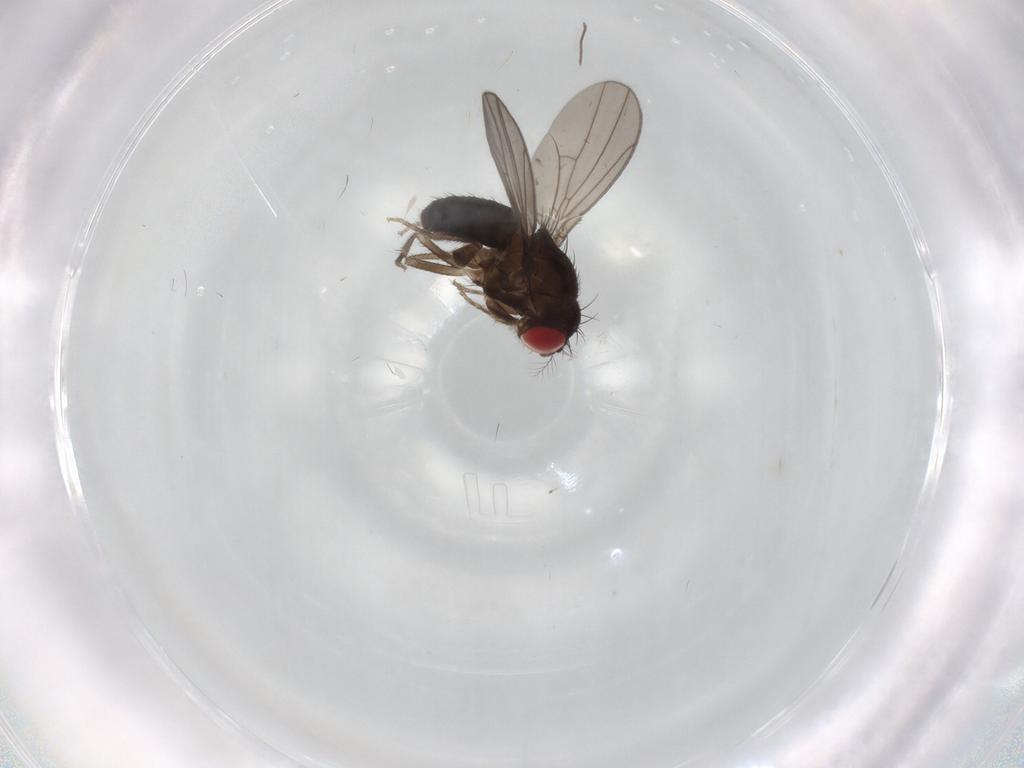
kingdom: Animalia
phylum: Arthropoda
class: Insecta
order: Diptera
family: Drosophilidae
